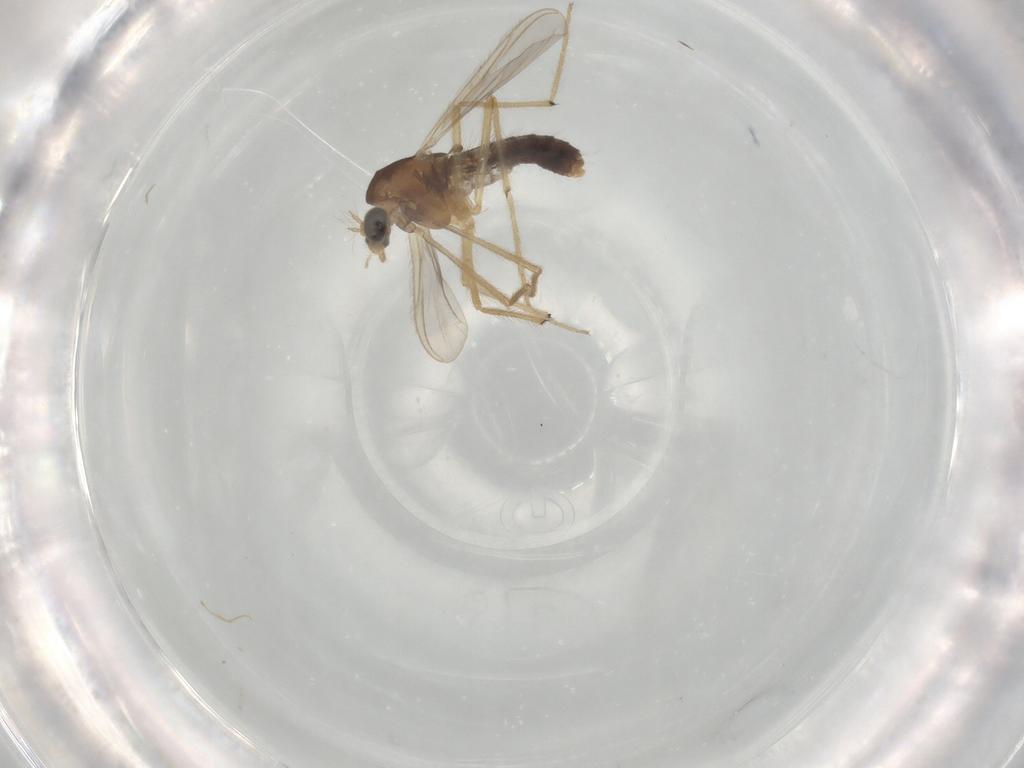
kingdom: Animalia
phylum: Arthropoda
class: Insecta
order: Diptera
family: Chironomidae
